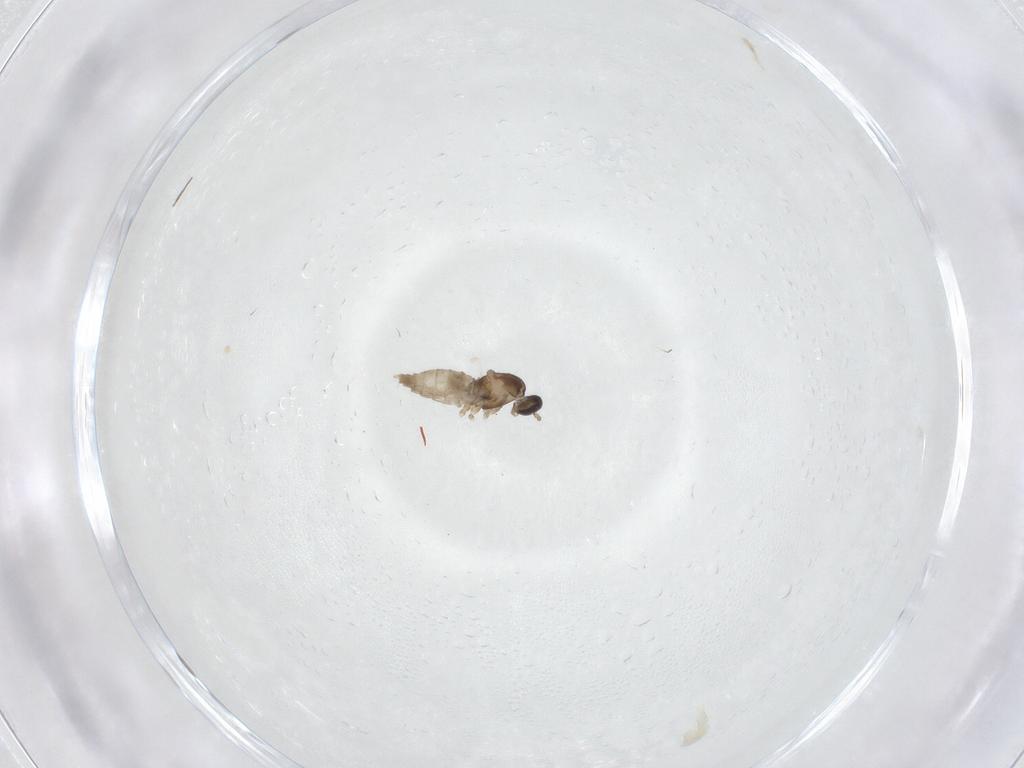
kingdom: Animalia
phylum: Arthropoda
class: Insecta
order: Diptera
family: Cecidomyiidae
